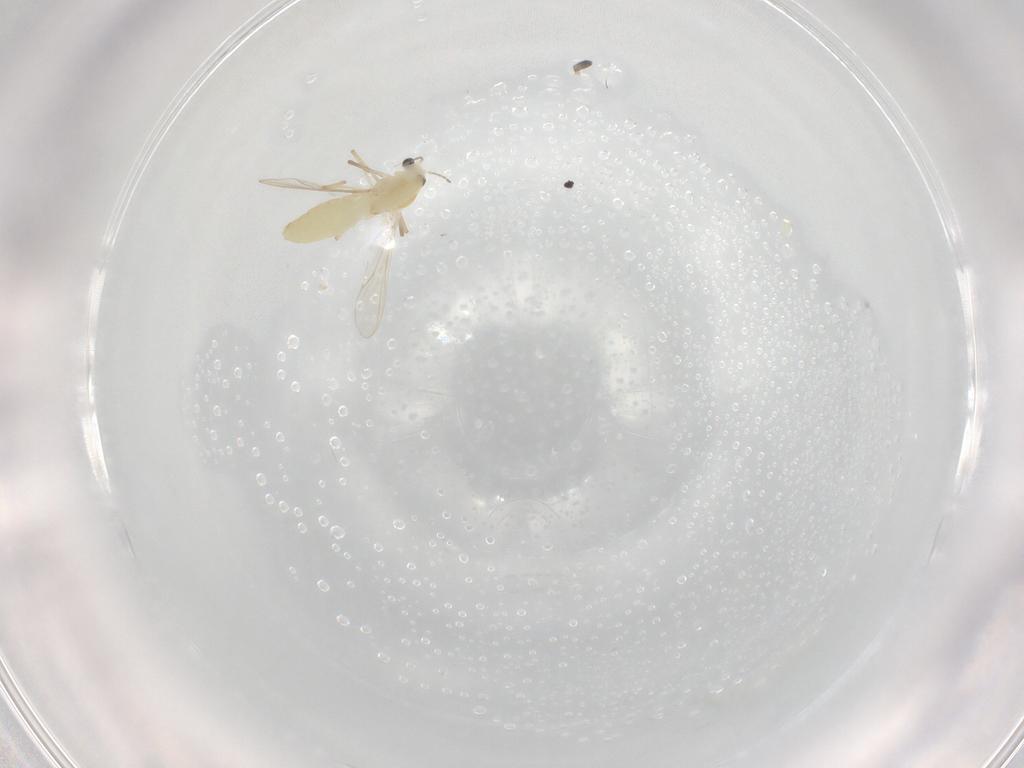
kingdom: Animalia
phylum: Arthropoda
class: Insecta
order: Diptera
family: Chironomidae
